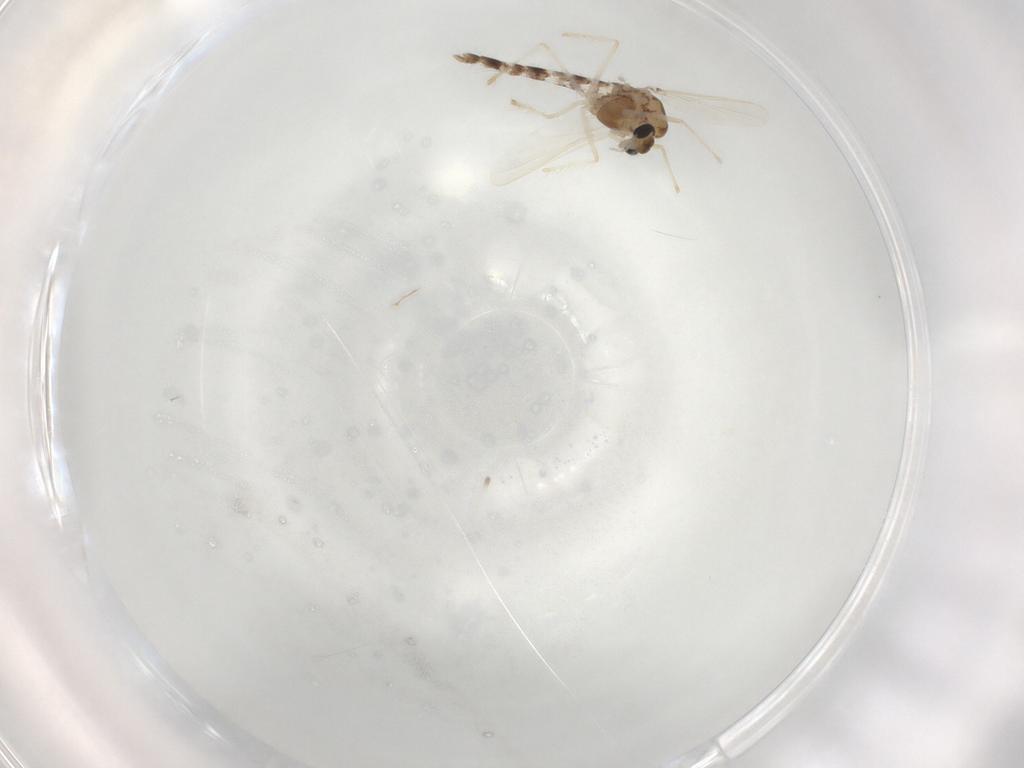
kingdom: Animalia
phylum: Arthropoda
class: Insecta
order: Diptera
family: Chironomidae
